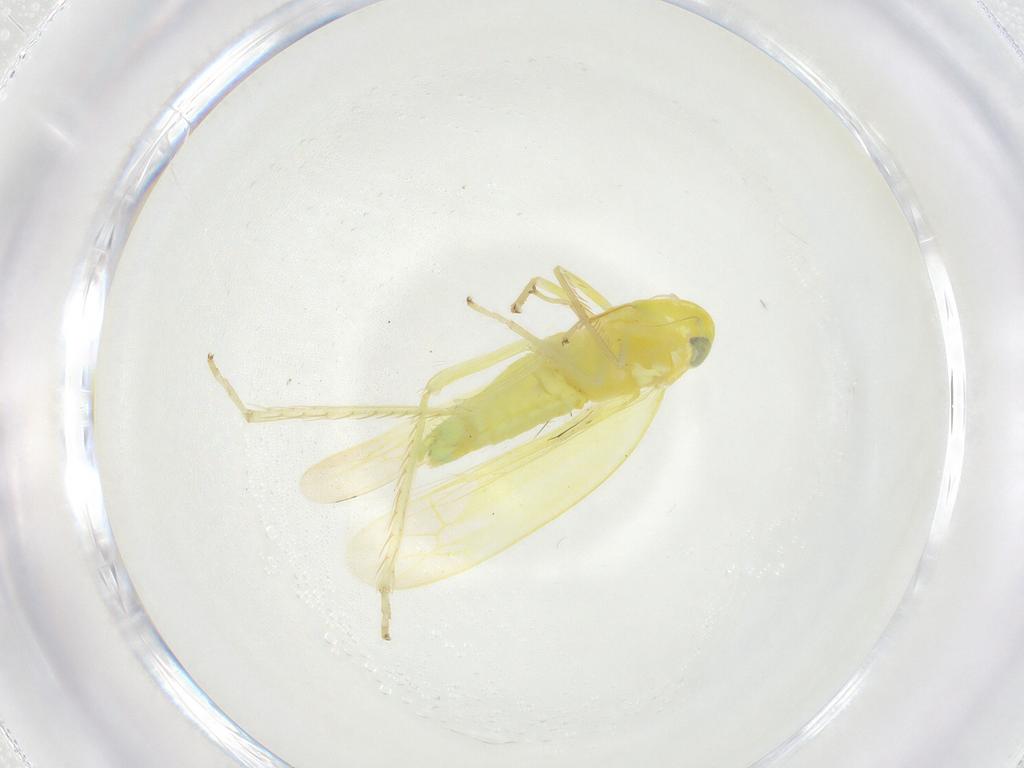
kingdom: Animalia
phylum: Arthropoda
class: Insecta
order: Hemiptera
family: Cicadellidae
